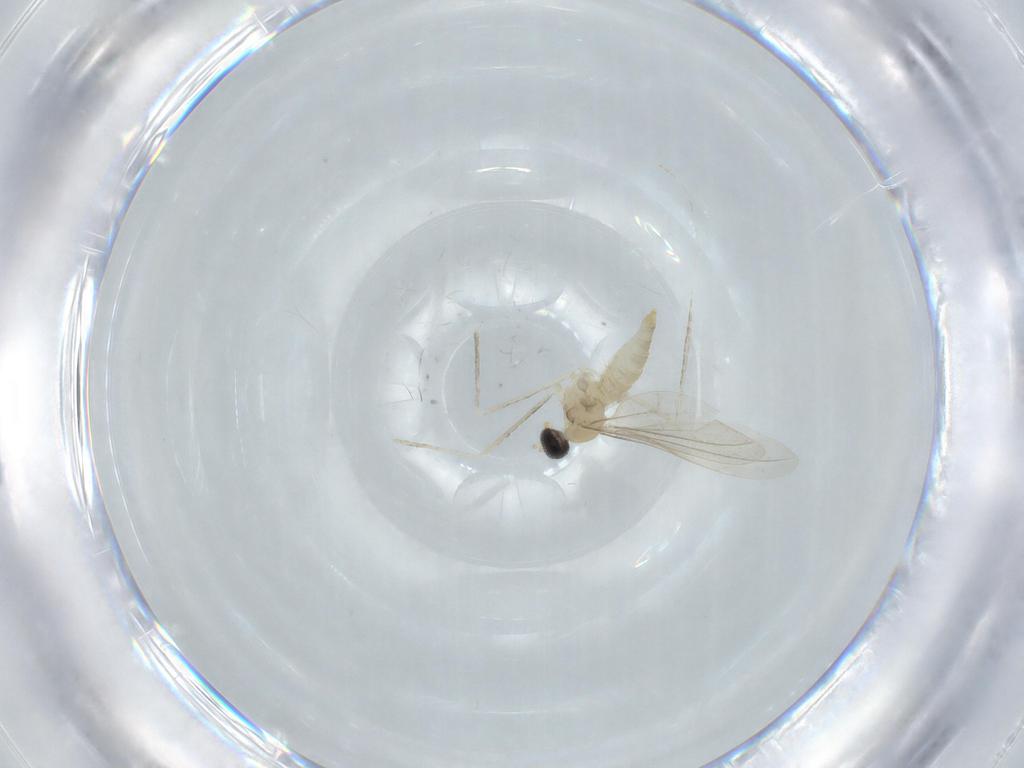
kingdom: Animalia
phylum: Arthropoda
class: Insecta
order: Diptera
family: Cecidomyiidae
